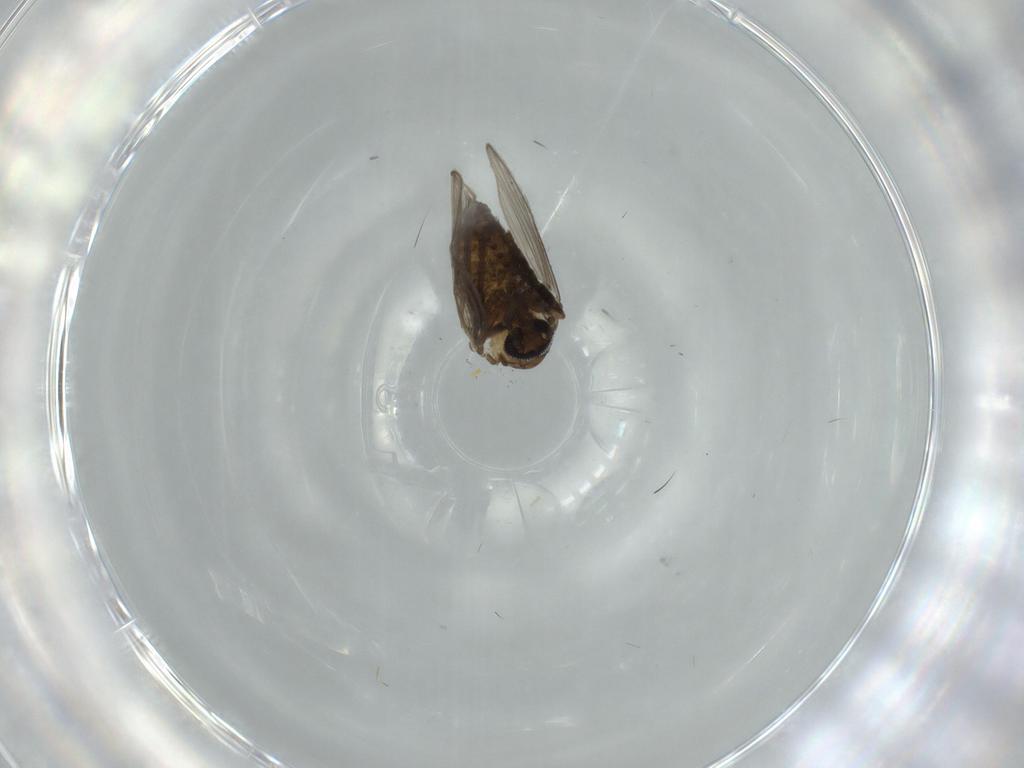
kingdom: Animalia
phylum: Arthropoda
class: Insecta
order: Diptera
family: Psychodidae
